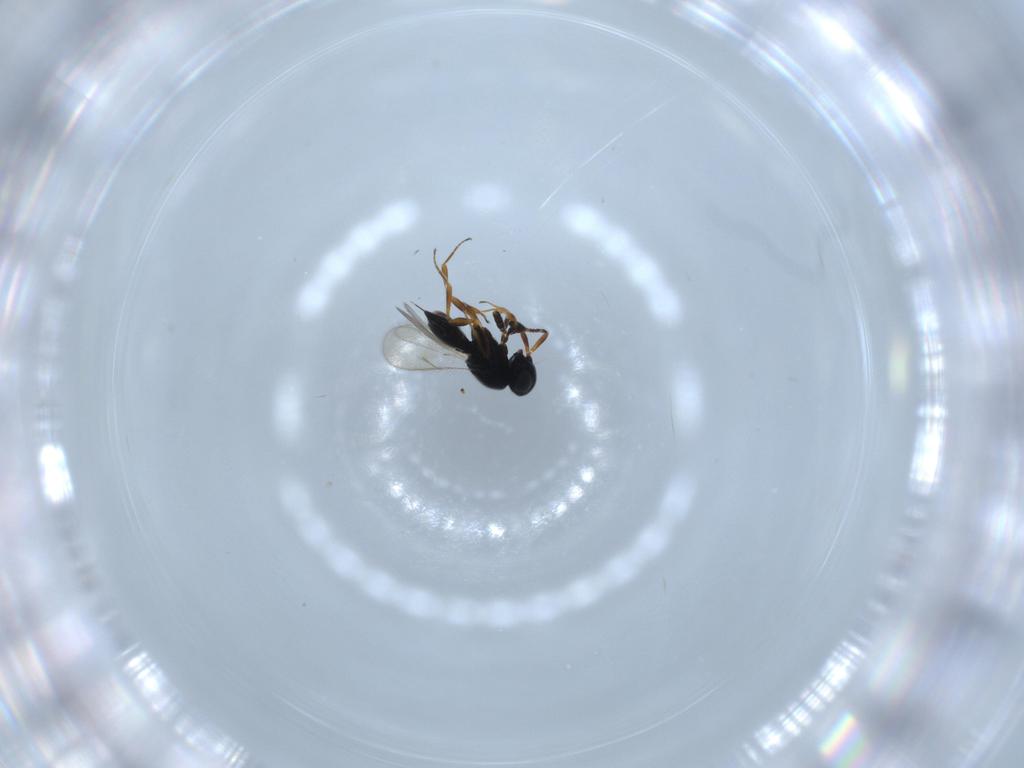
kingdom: Animalia
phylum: Arthropoda
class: Insecta
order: Hymenoptera
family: Scelionidae
